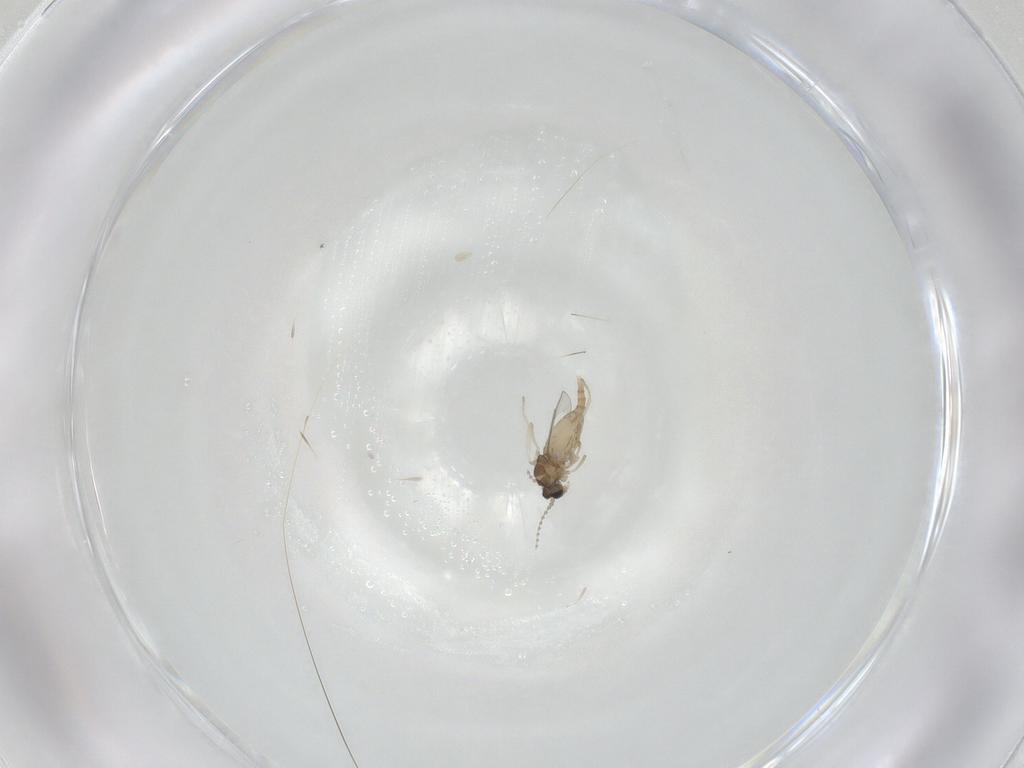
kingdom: Animalia
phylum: Arthropoda
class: Insecta
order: Diptera
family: Cecidomyiidae
